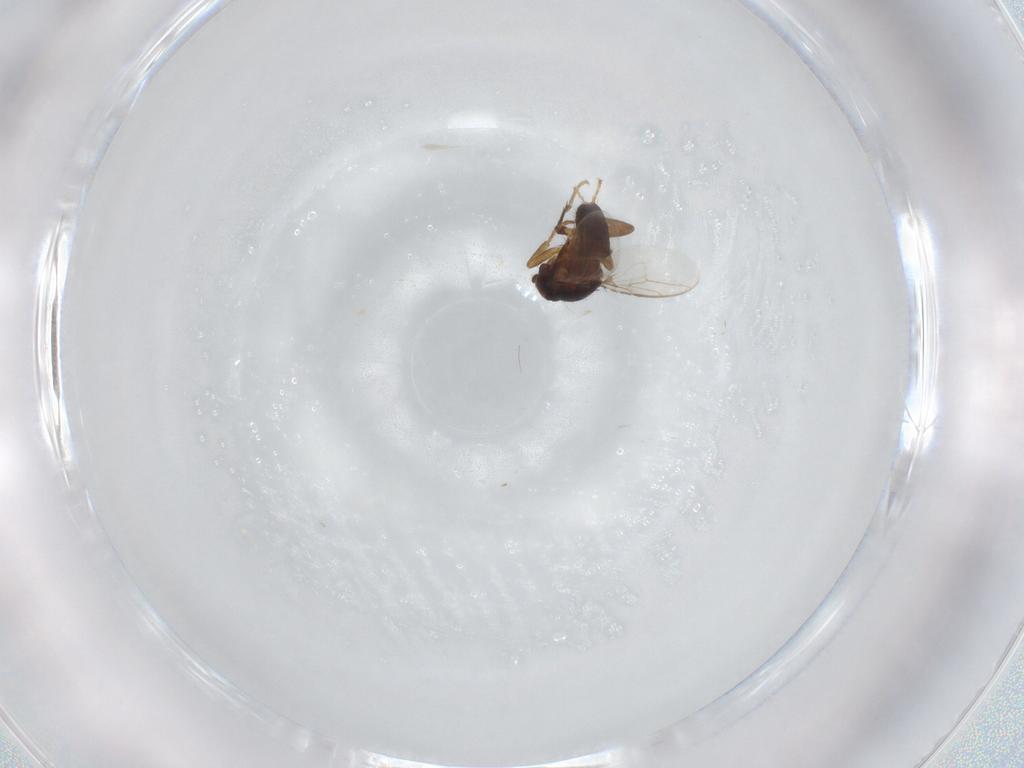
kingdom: Animalia
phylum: Arthropoda
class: Insecta
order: Diptera
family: Sphaeroceridae
